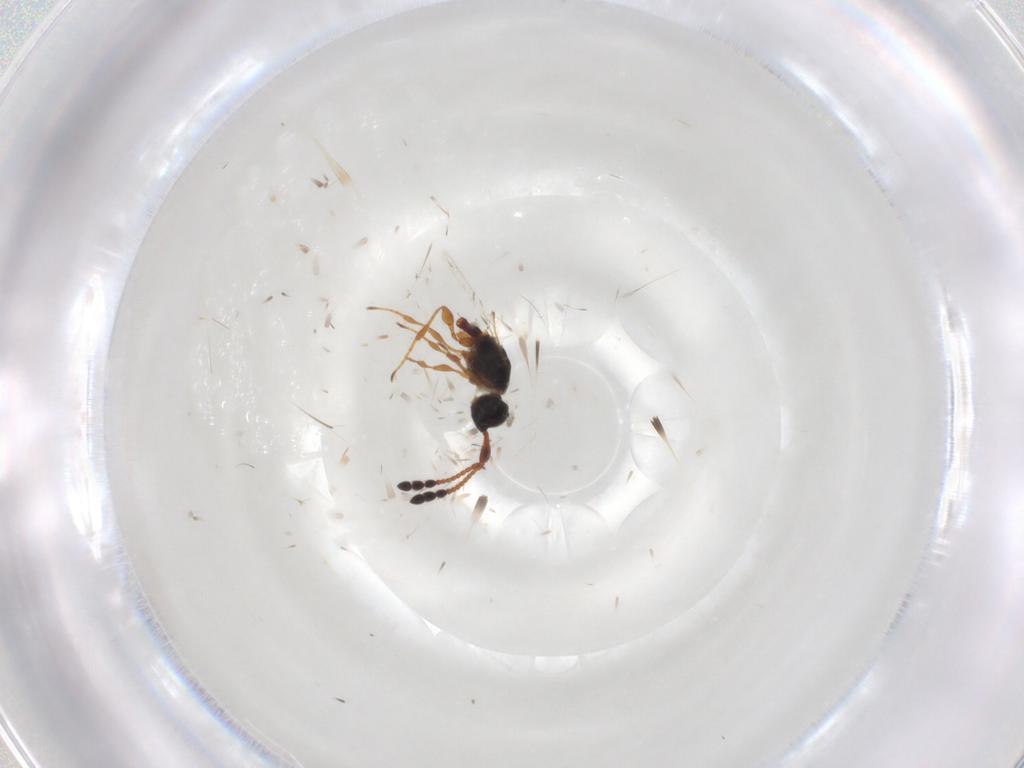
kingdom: Animalia
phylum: Arthropoda
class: Insecta
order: Hymenoptera
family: Diapriidae
